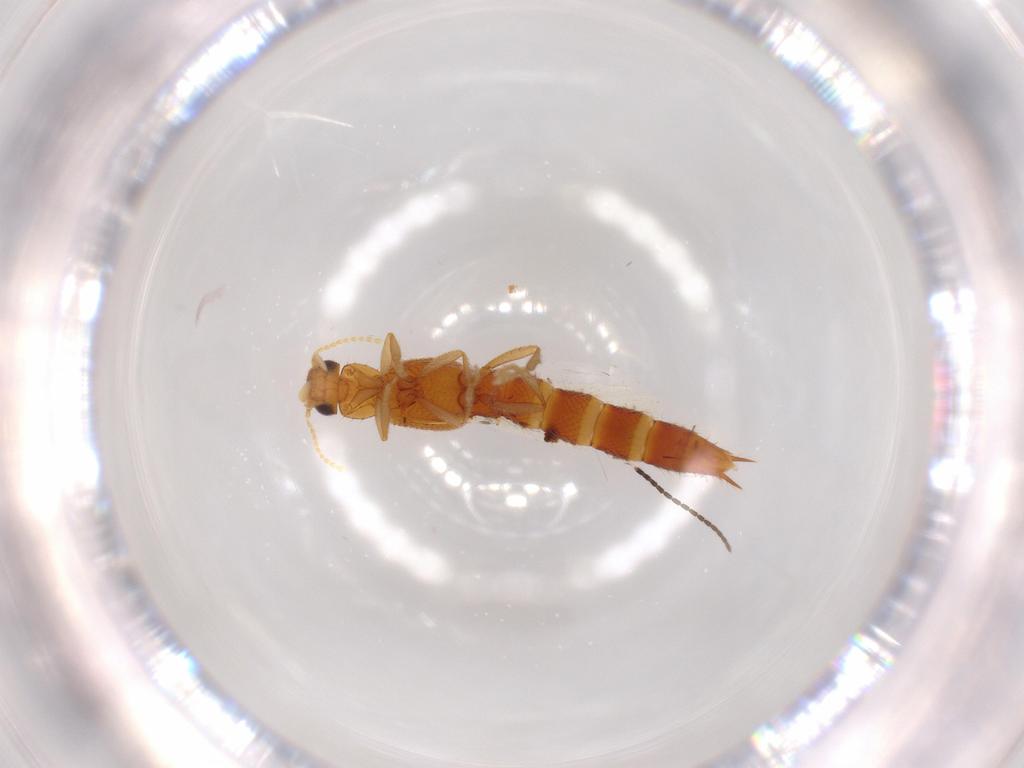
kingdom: Animalia
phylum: Arthropoda
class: Insecta
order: Coleoptera
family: Staphylinidae
